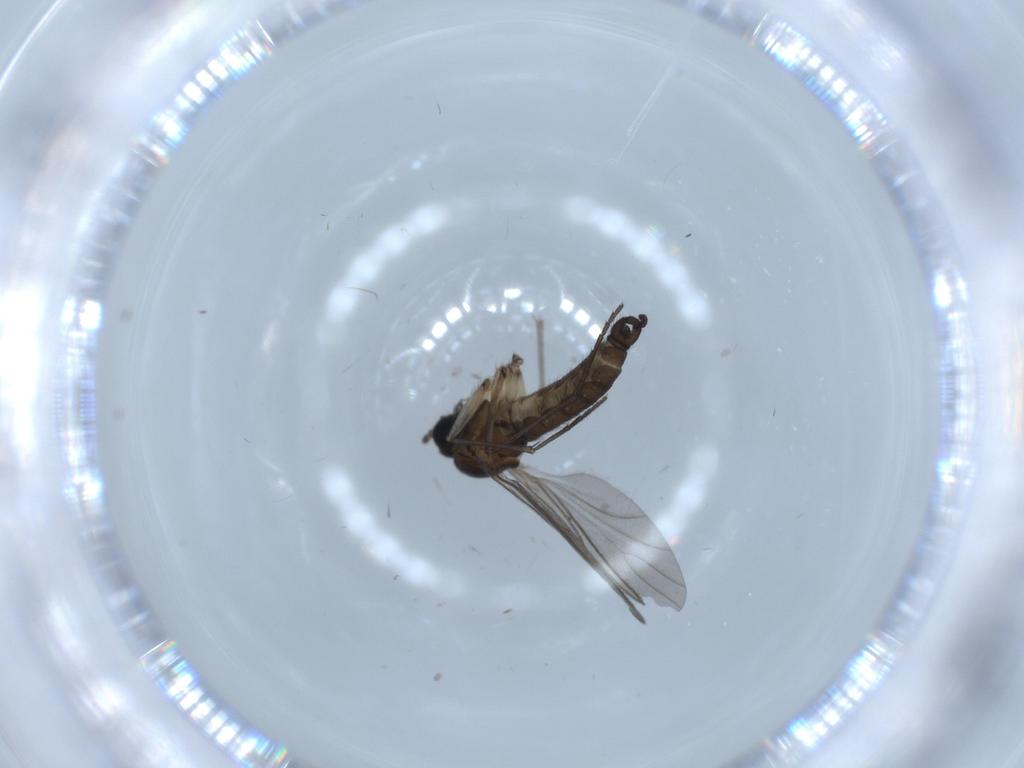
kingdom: Animalia
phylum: Arthropoda
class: Insecta
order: Diptera
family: Sciaridae
